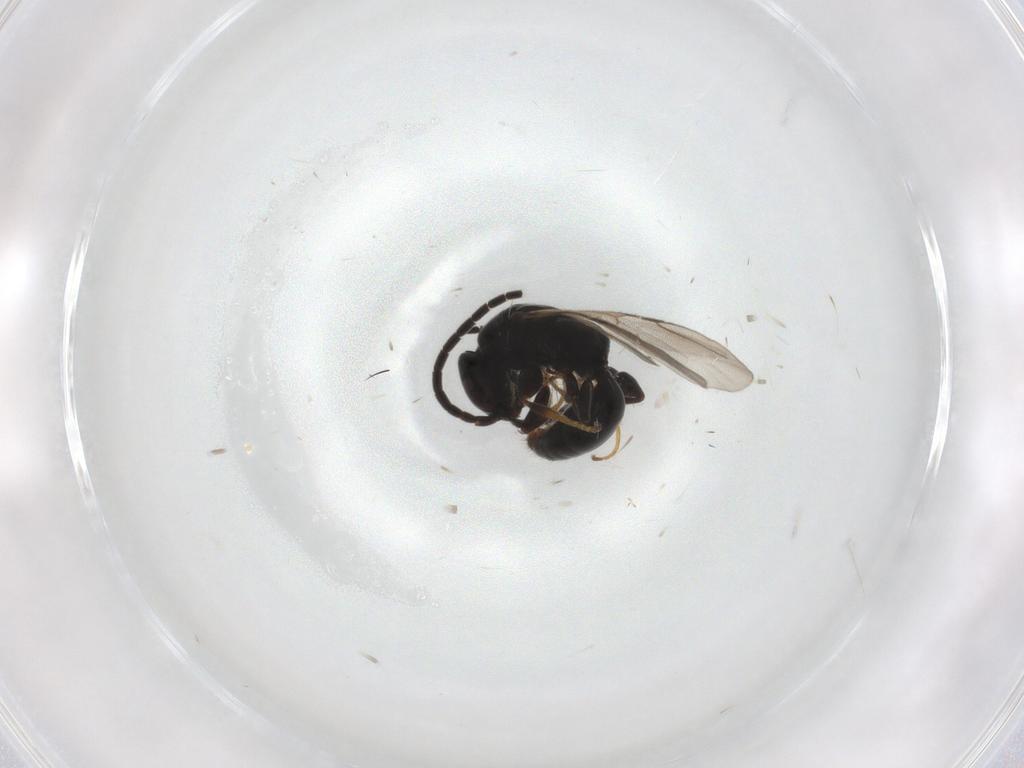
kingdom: Animalia
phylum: Arthropoda
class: Insecta
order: Hymenoptera
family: Bethylidae
